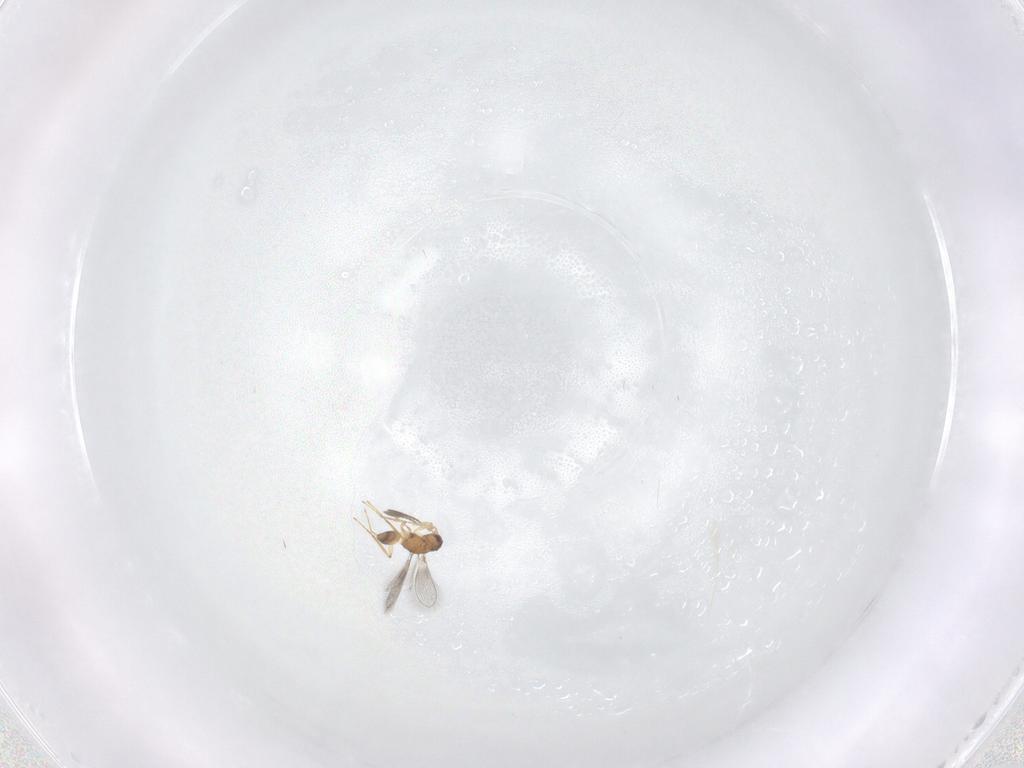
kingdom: Animalia
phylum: Arthropoda
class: Insecta
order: Hymenoptera
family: Mymaridae
